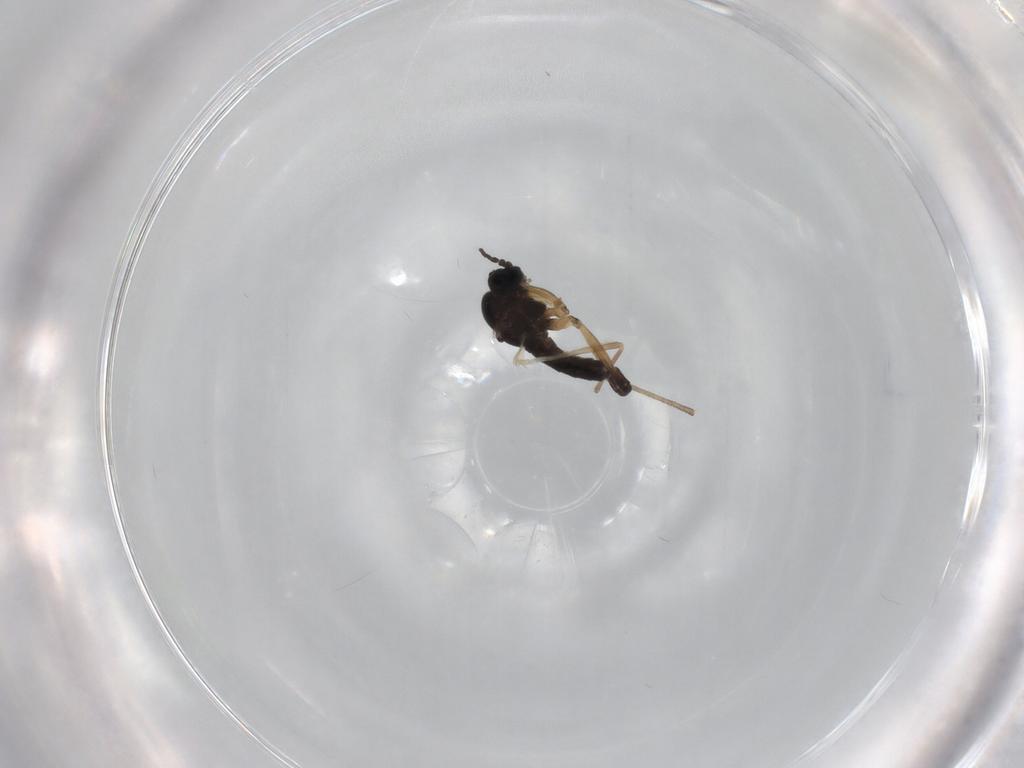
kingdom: Animalia
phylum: Arthropoda
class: Insecta
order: Diptera
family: Sciaridae
